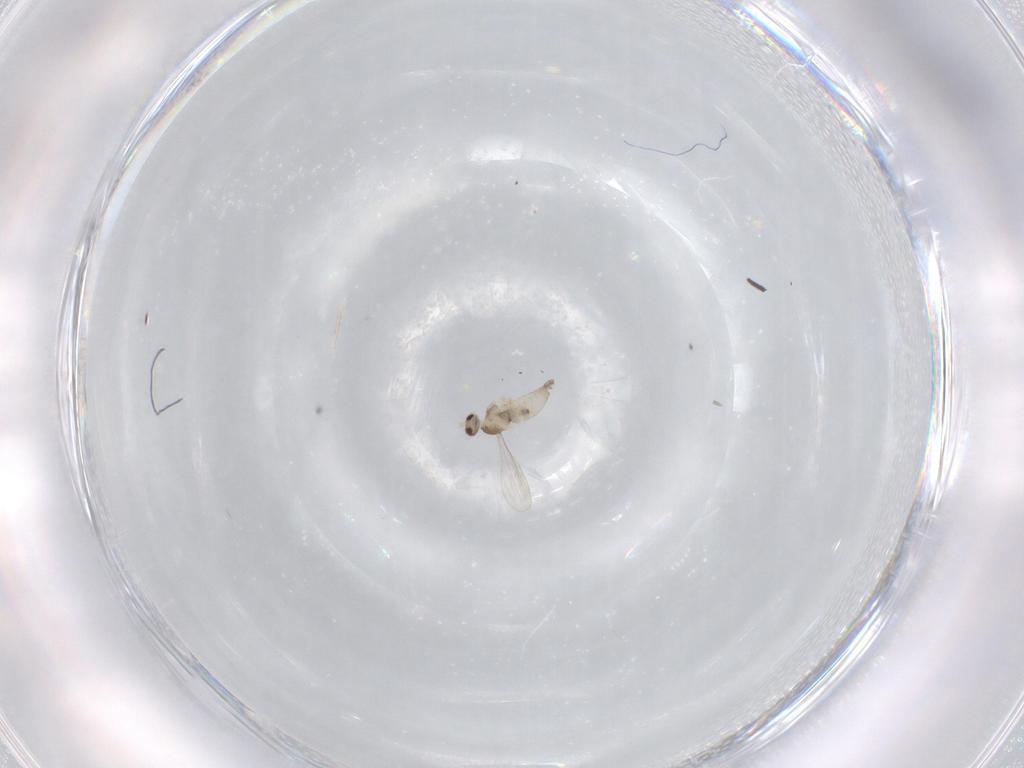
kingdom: Animalia
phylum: Arthropoda
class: Insecta
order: Diptera
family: Cecidomyiidae
